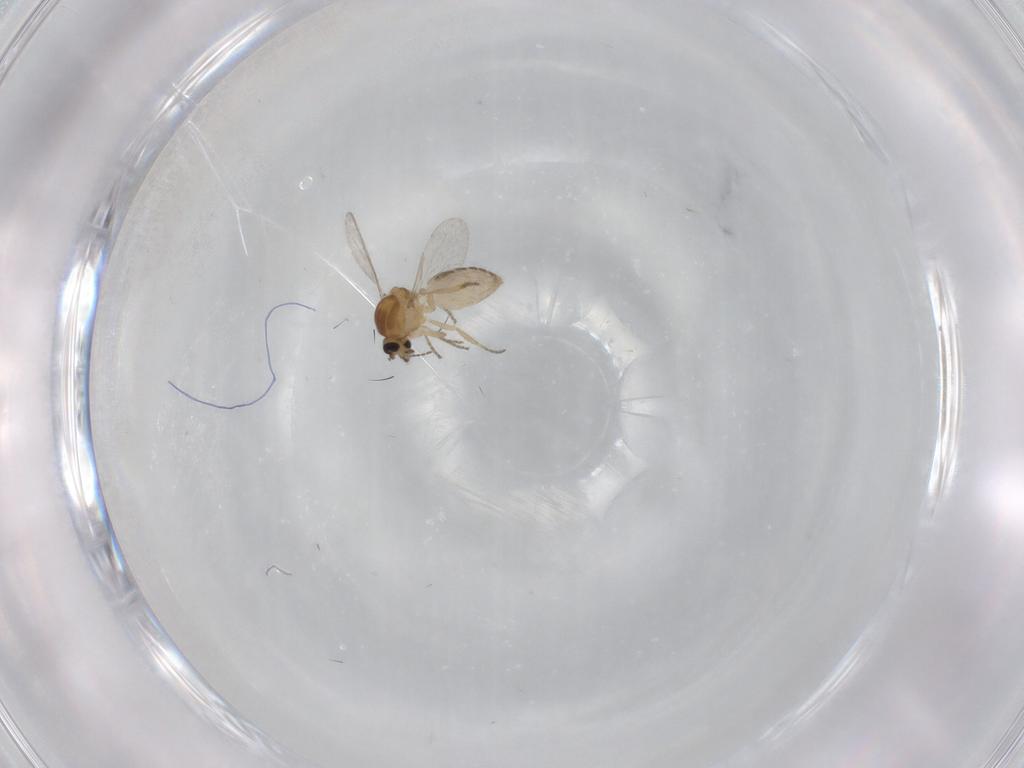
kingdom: Animalia
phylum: Arthropoda
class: Insecta
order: Diptera
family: Ceratopogonidae
